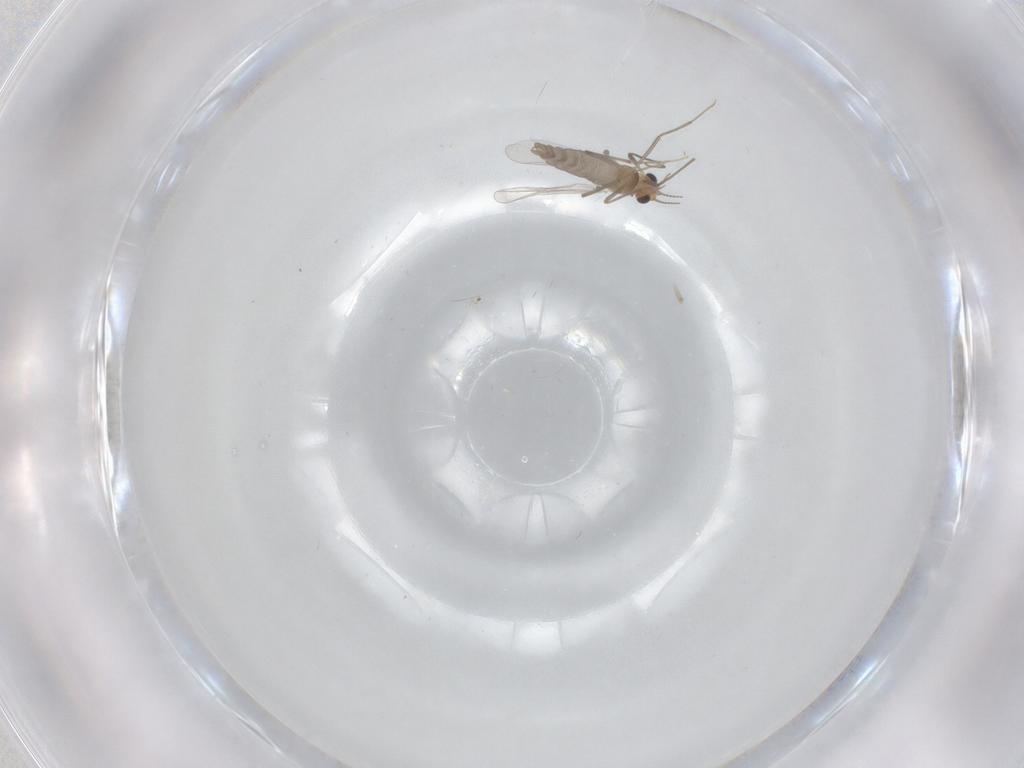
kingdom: Animalia
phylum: Arthropoda
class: Insecta
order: Diptera
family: Chironomidae
